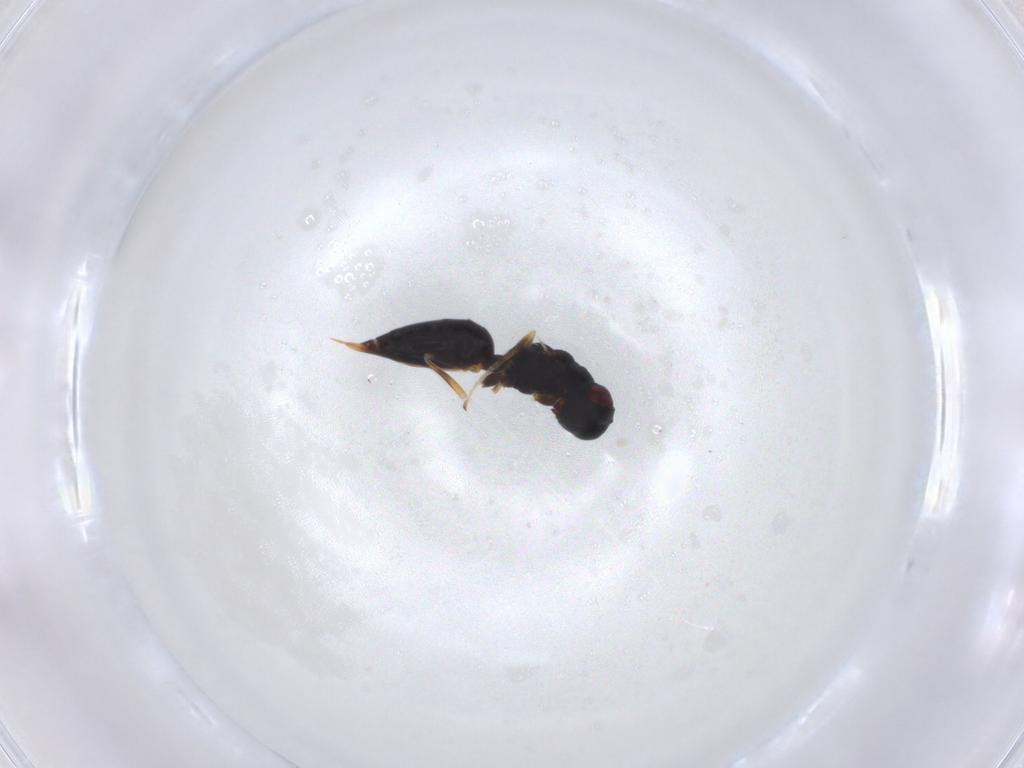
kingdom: Animalia
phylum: Arthropoda
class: Insecta
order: Hymenoptera
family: Eurytomidae
